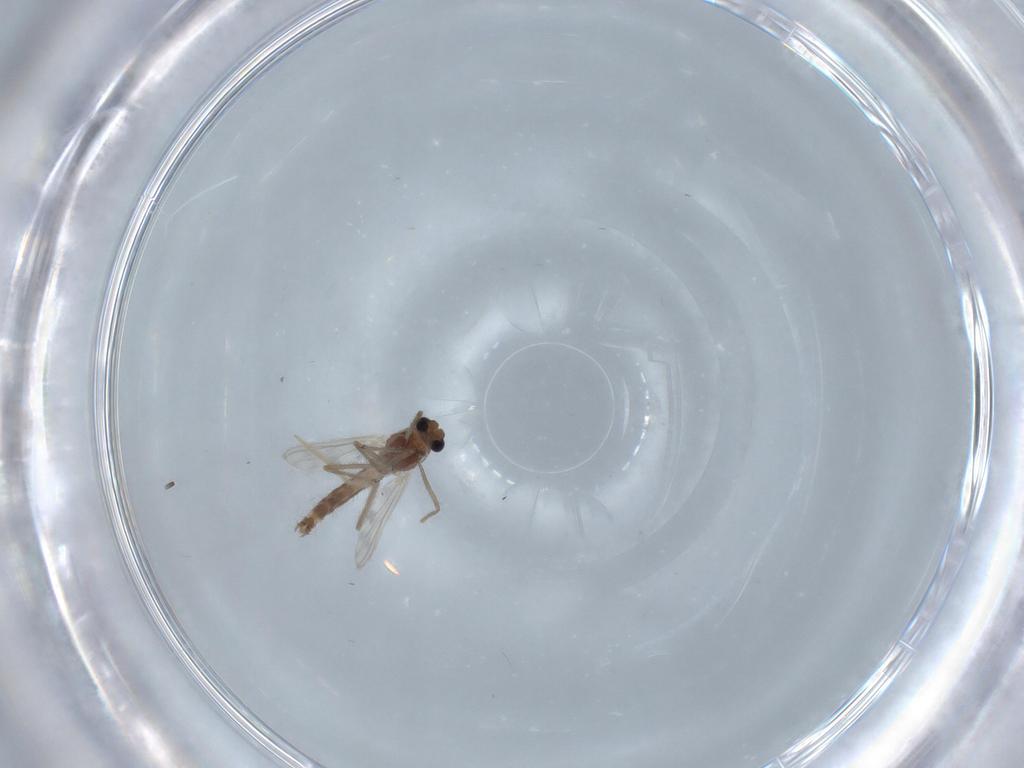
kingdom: Animalia
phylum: Arthropoda
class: Insecta
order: Diptera
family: Chironomidae
